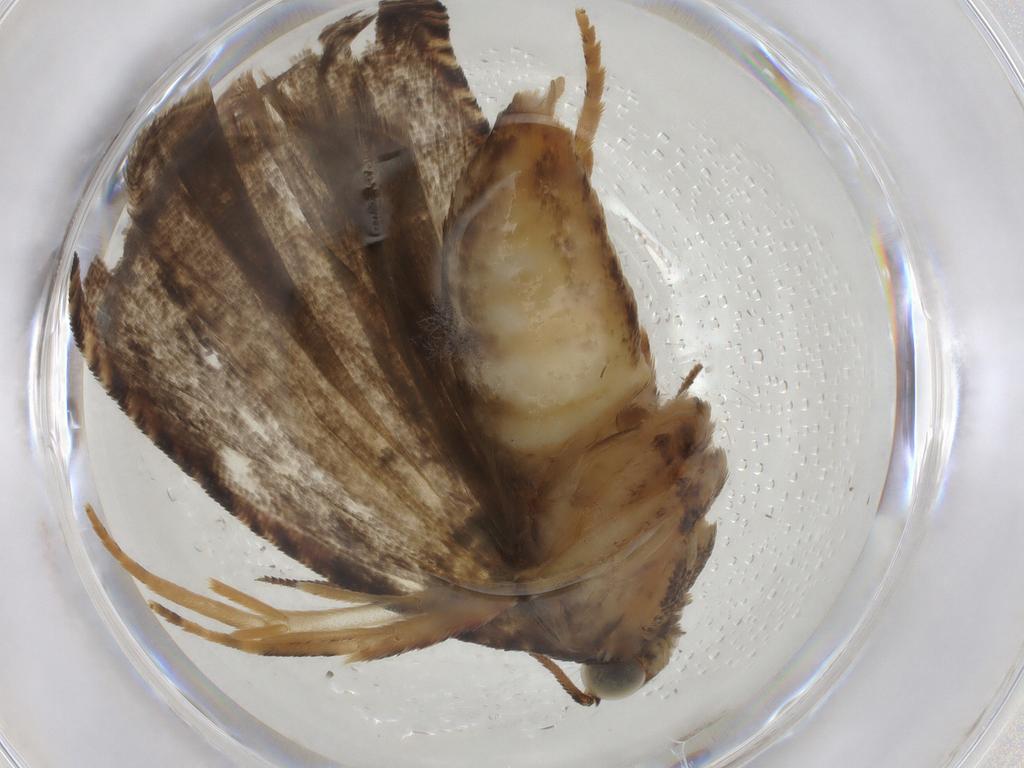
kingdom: Animalia
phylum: Arthropoda
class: Insecta
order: Lepidoptera
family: Tortricidae
